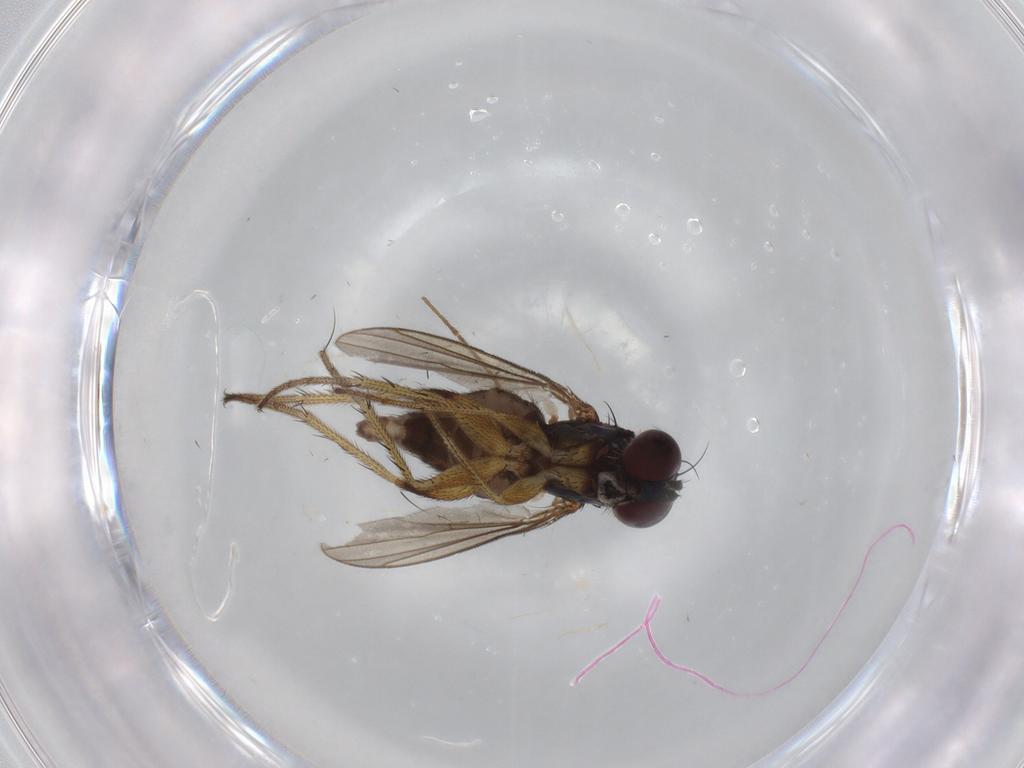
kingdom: Animalia
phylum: Arthropoda
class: Insecta
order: Diptera
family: Dolichopodidae
